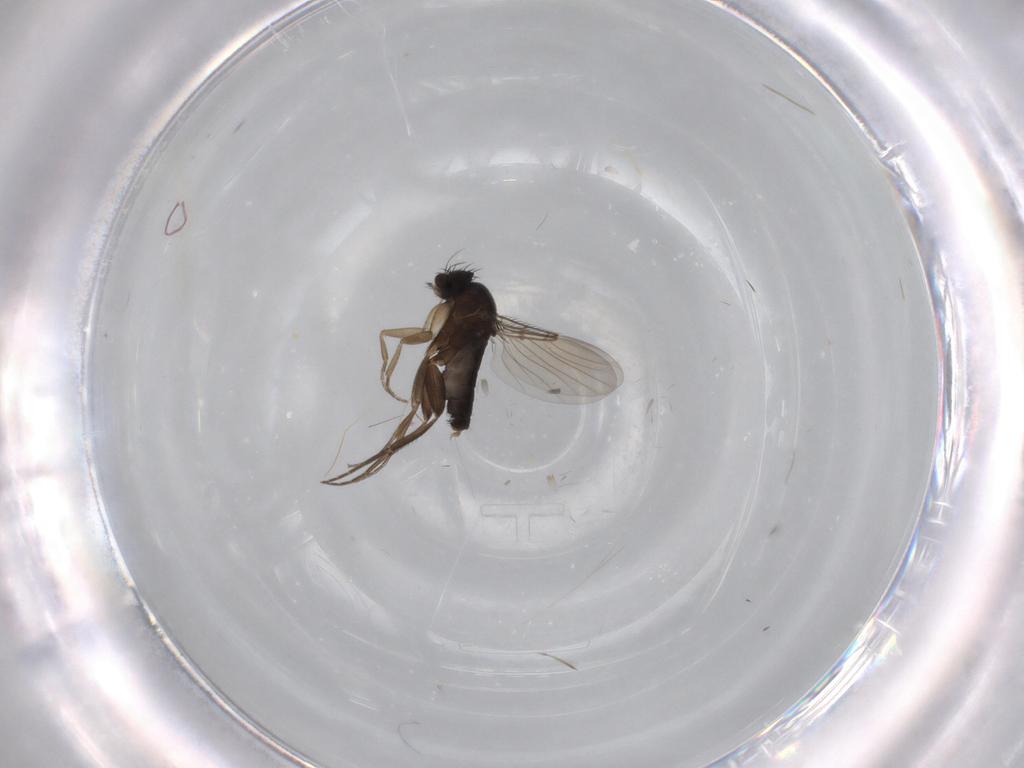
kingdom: Animalia
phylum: Arthropoda
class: Insecta
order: Diptera
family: Phoridae
